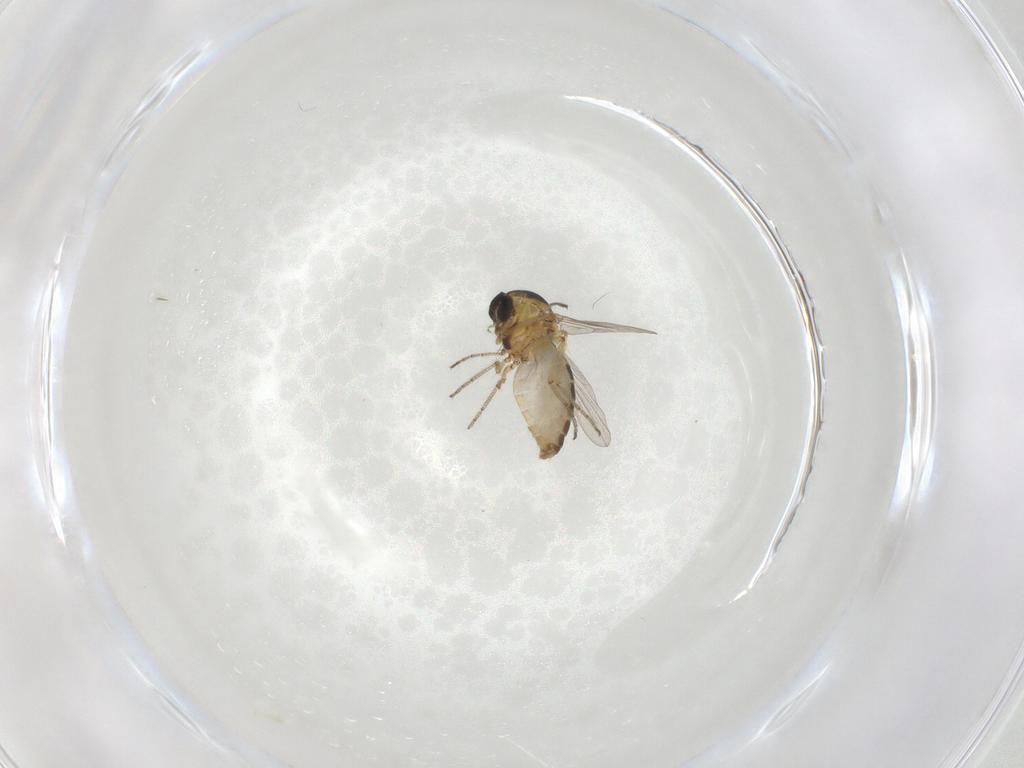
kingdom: Animalia
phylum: Arthropoda
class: Insecta
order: Diptera
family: Ceratopogonidae
